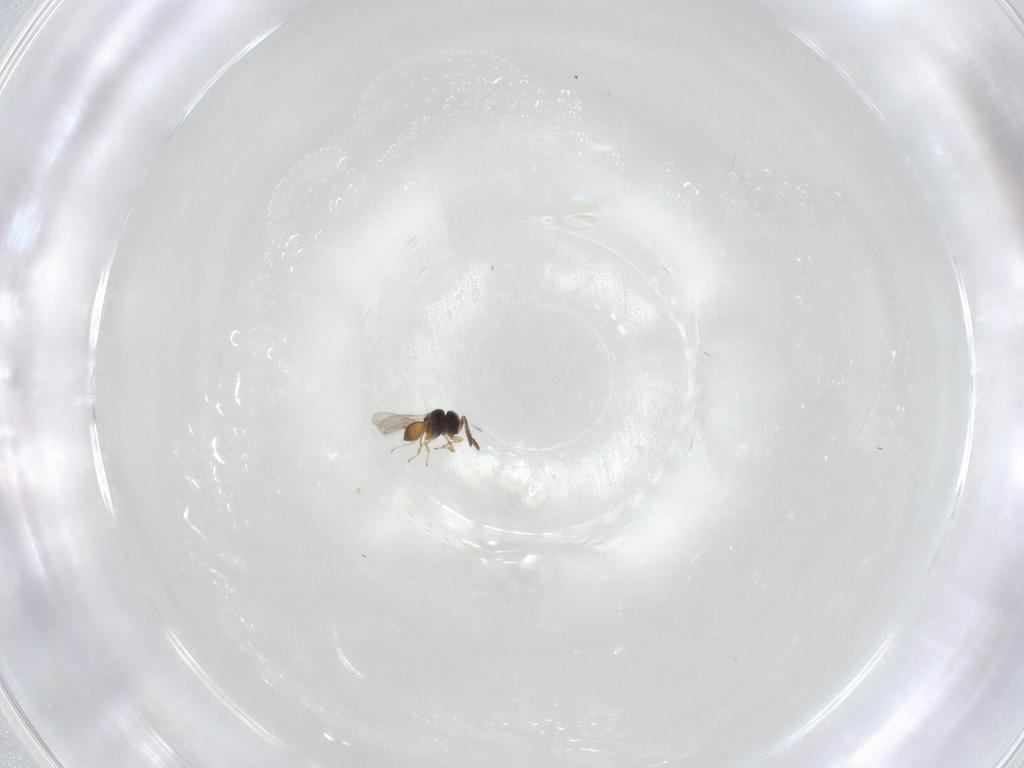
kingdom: Animalia
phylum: Arthropoda
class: Insecta
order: Hymenoptera
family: Scelionidae
